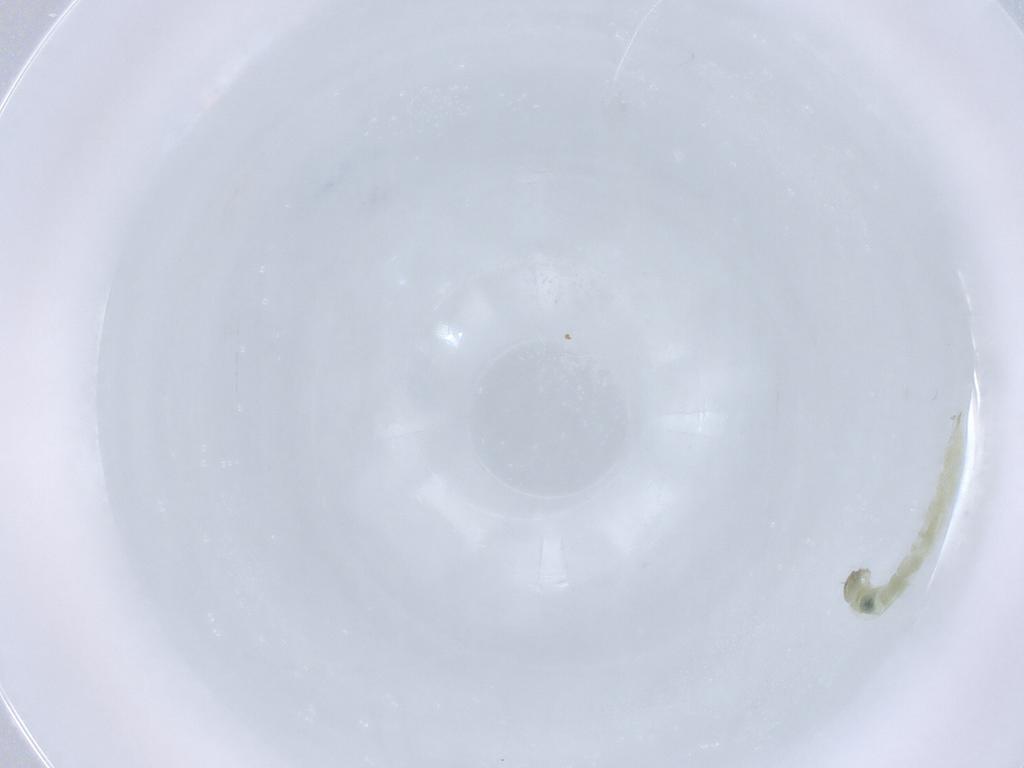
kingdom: Animalia
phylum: Arthropoda
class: Insecta
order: Diptera
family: Chironomidae
